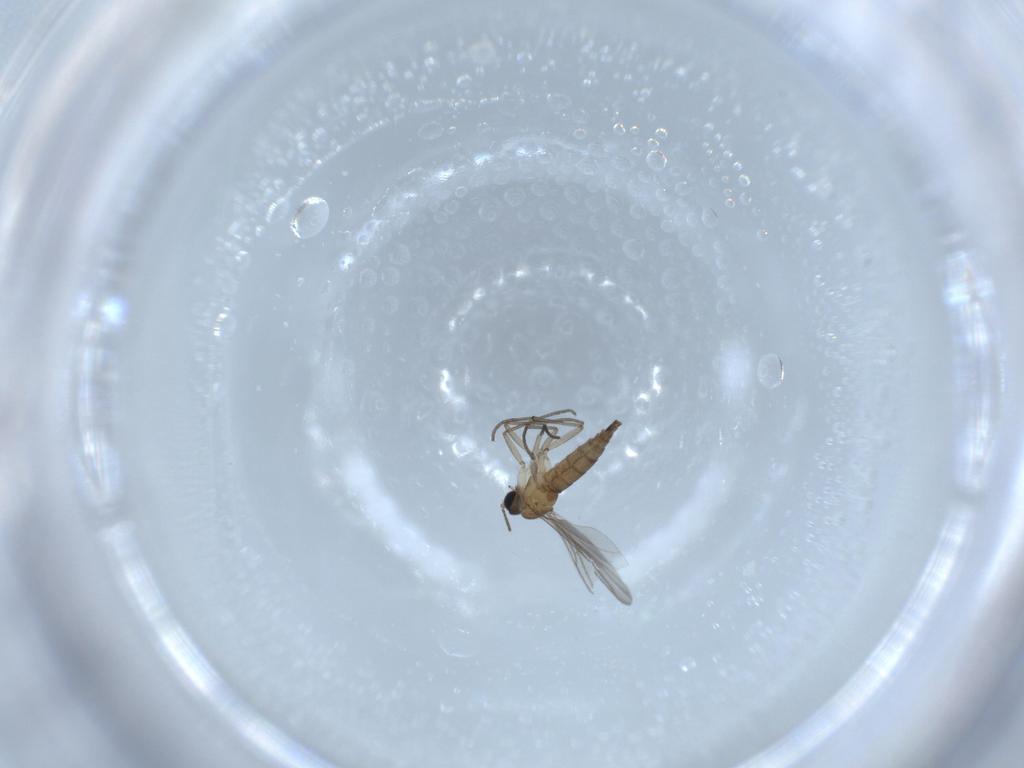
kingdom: Animalia
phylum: Arthropoda
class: Insecta
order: Diptera
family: Sciaridae
